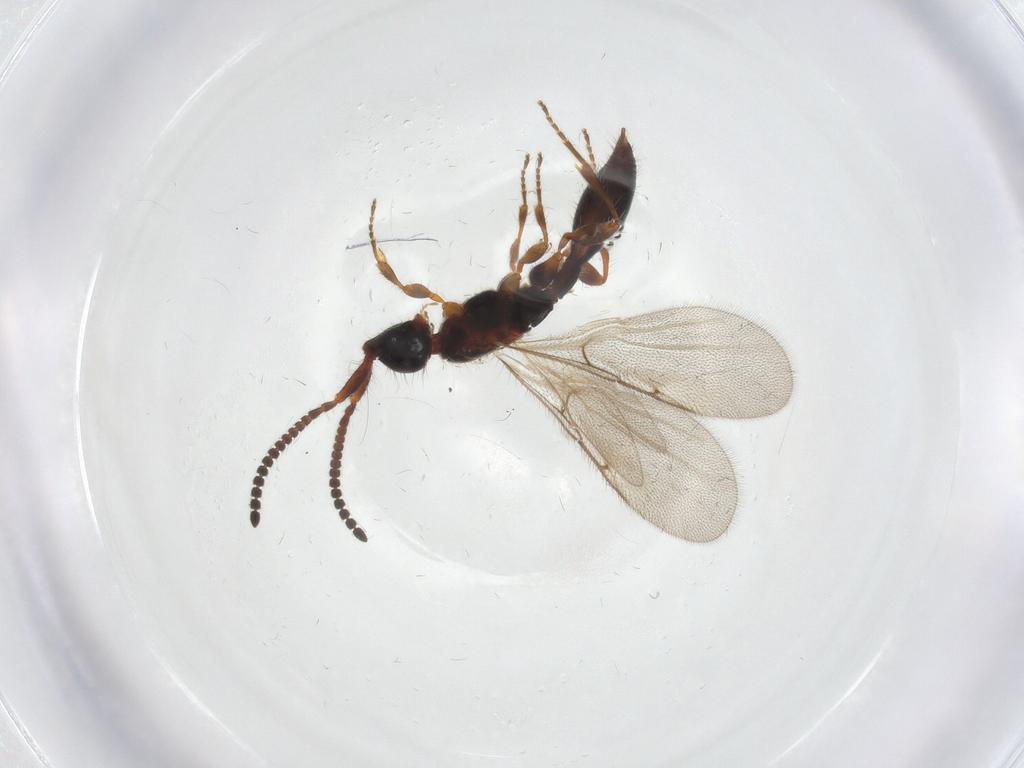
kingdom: Animalia
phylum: Arthropoda
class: Insecta
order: Hymenoptera
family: Diapriidae
